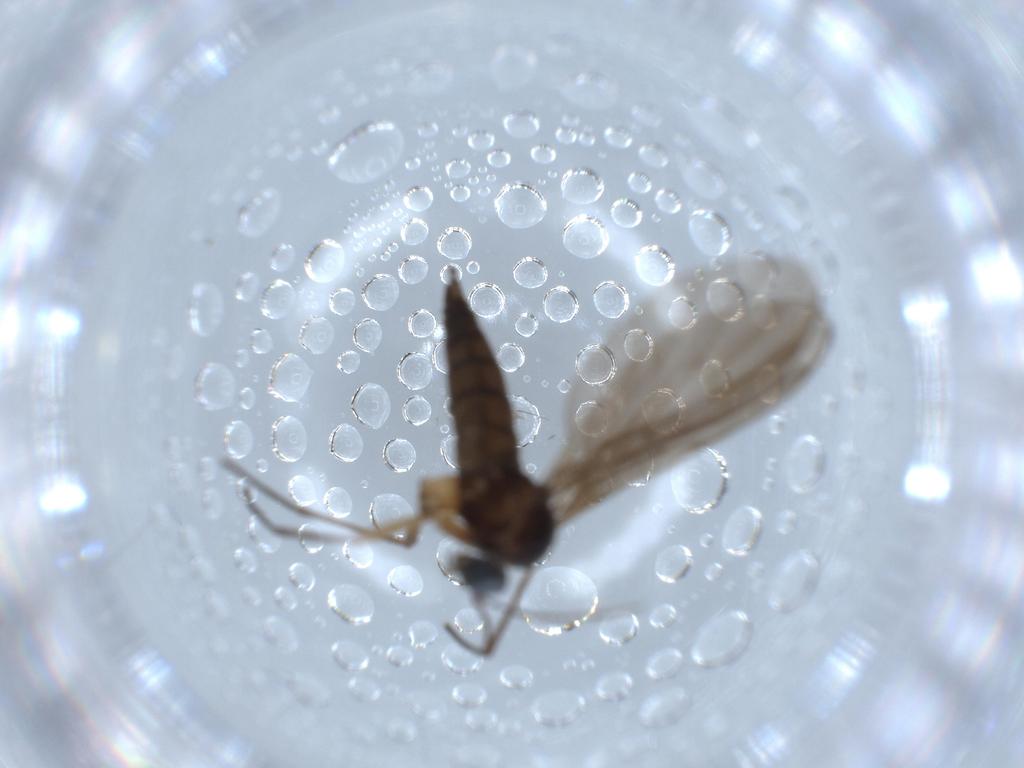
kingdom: Animalia
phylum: Arthropoda
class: Insecta
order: Diptera
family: Sciaridae
